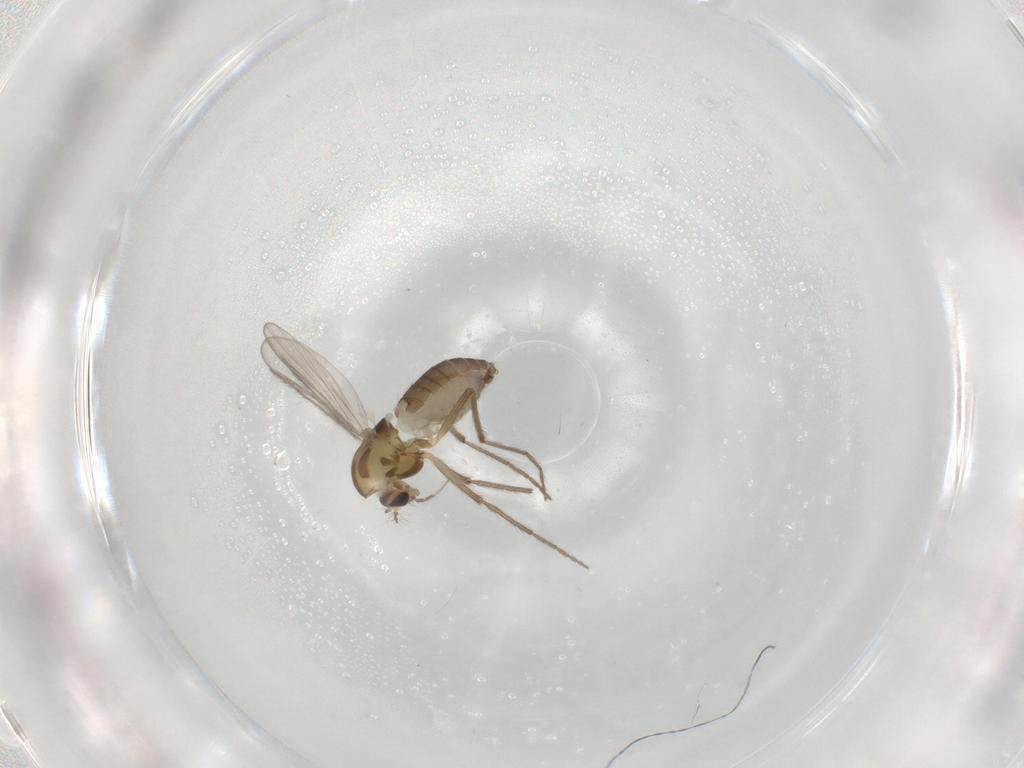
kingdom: Animalia
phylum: Arthropoda
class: Insecta
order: Diptera
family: Chironomidae
